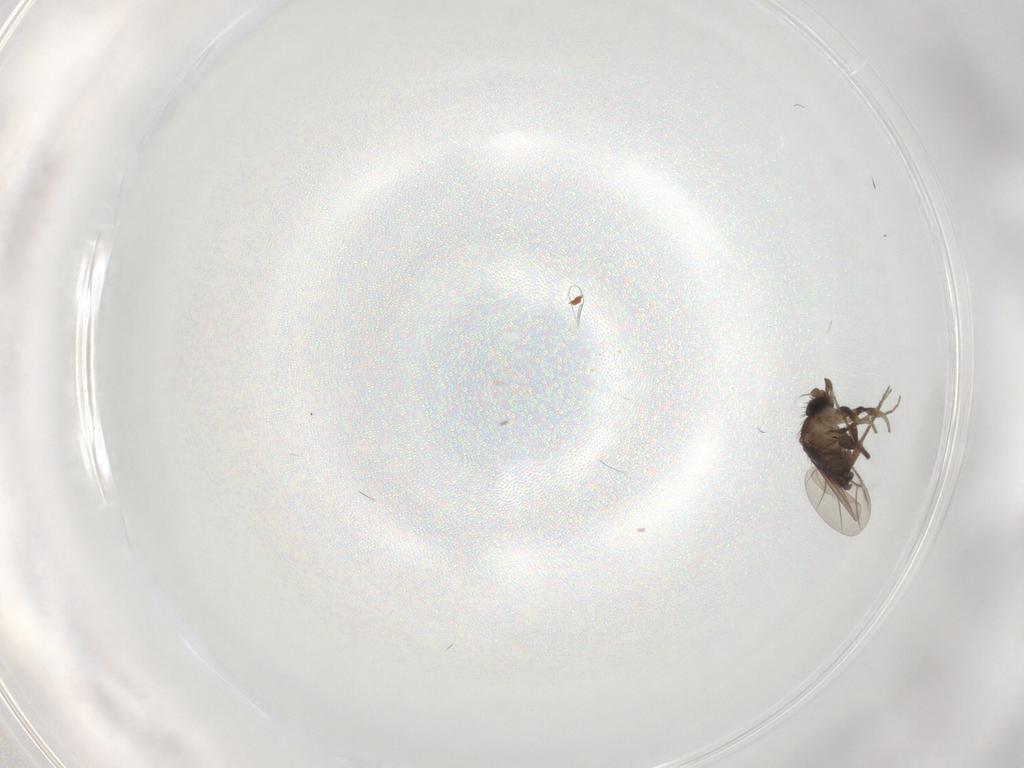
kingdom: Animalia
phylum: Arthropoda
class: Insecta
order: Diptera
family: Phoridae
